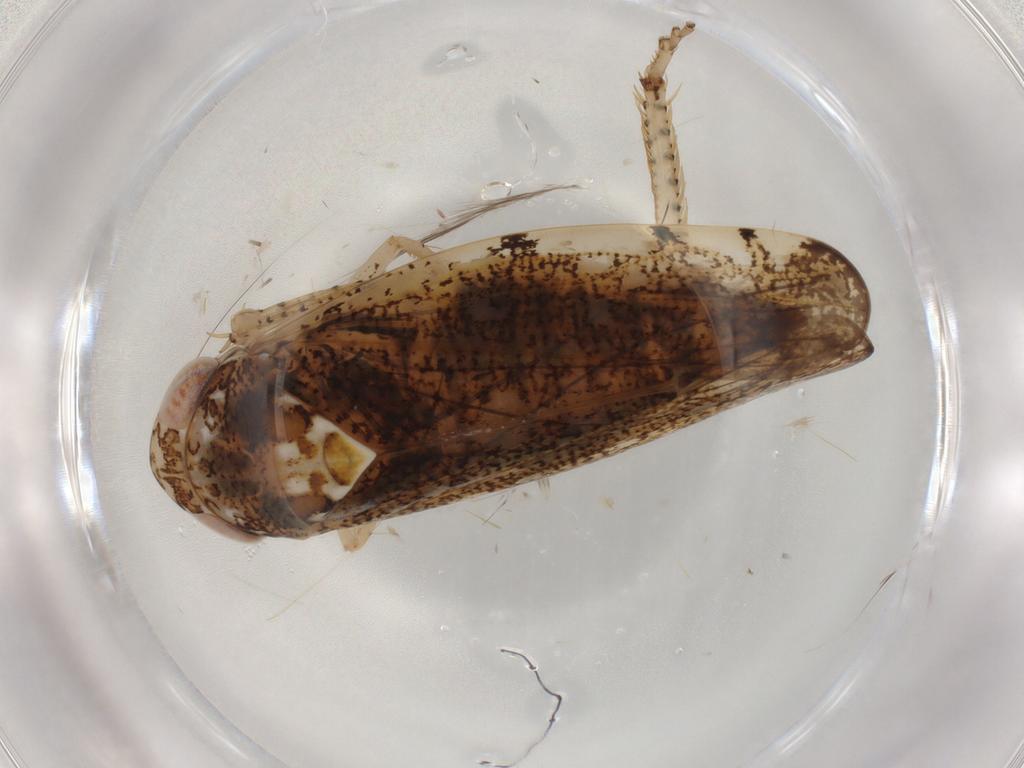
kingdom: Animalia
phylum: Arthropoda
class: Insecta
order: Hemiptera
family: Cicadellidae
